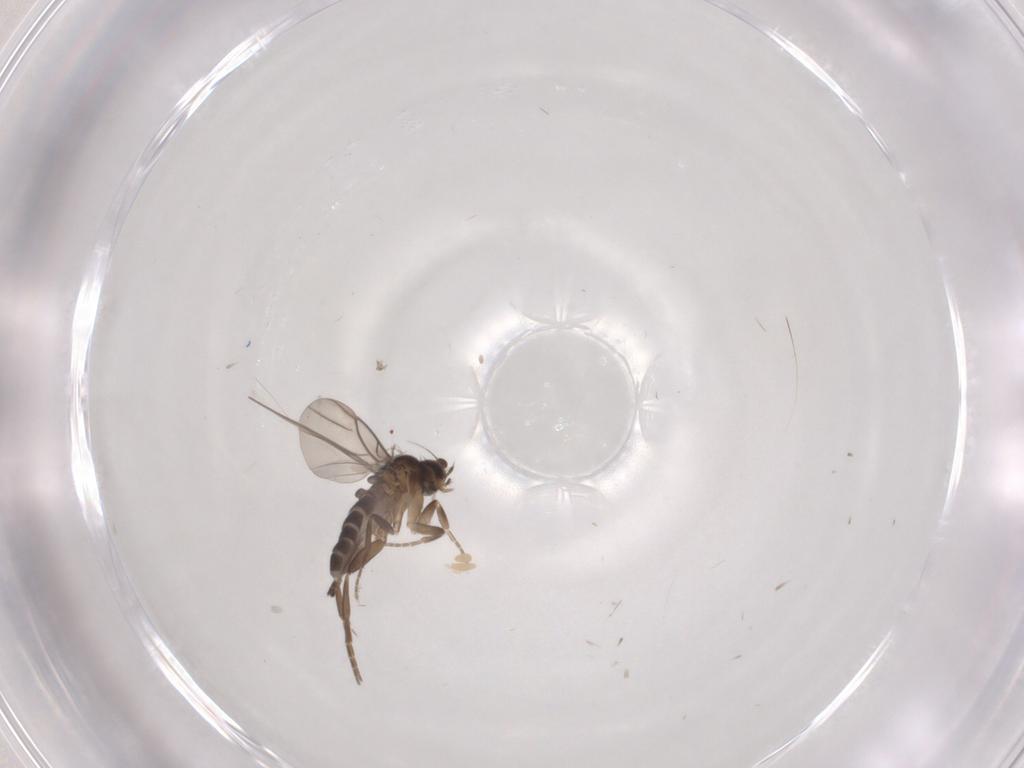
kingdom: Animalia
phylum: Arthropoda
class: Insecta
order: Diptera
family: Phoridae
